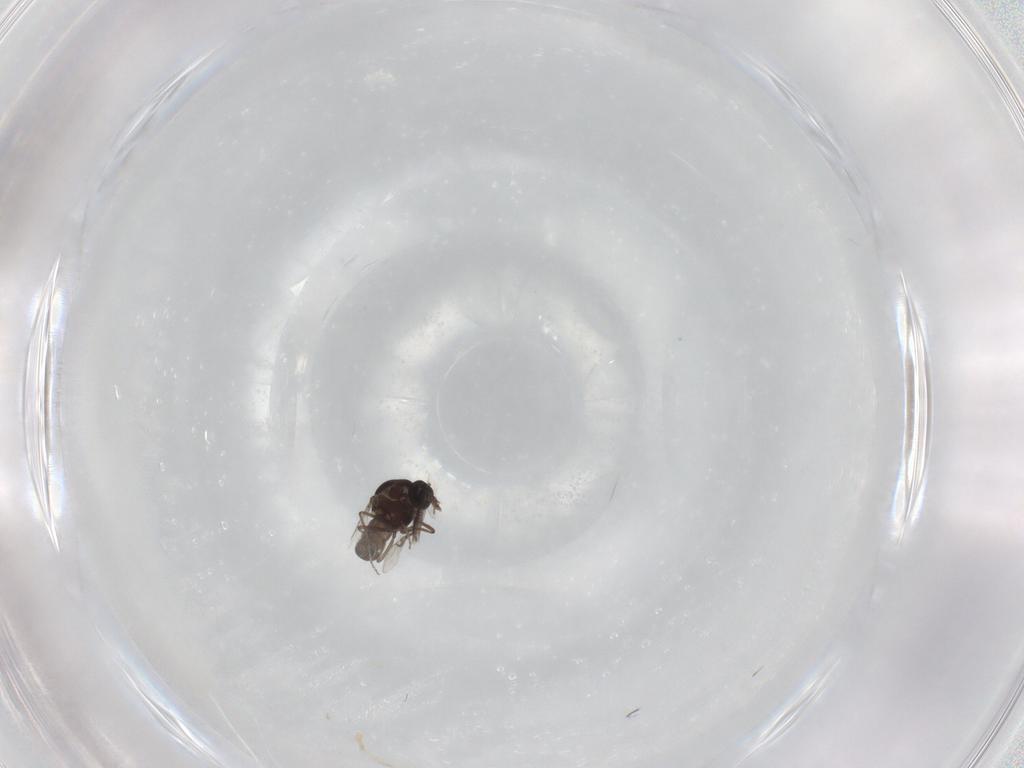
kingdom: Animalia
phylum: Arthropoda
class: Insecta
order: Diptera
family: Ceratopogonidae
